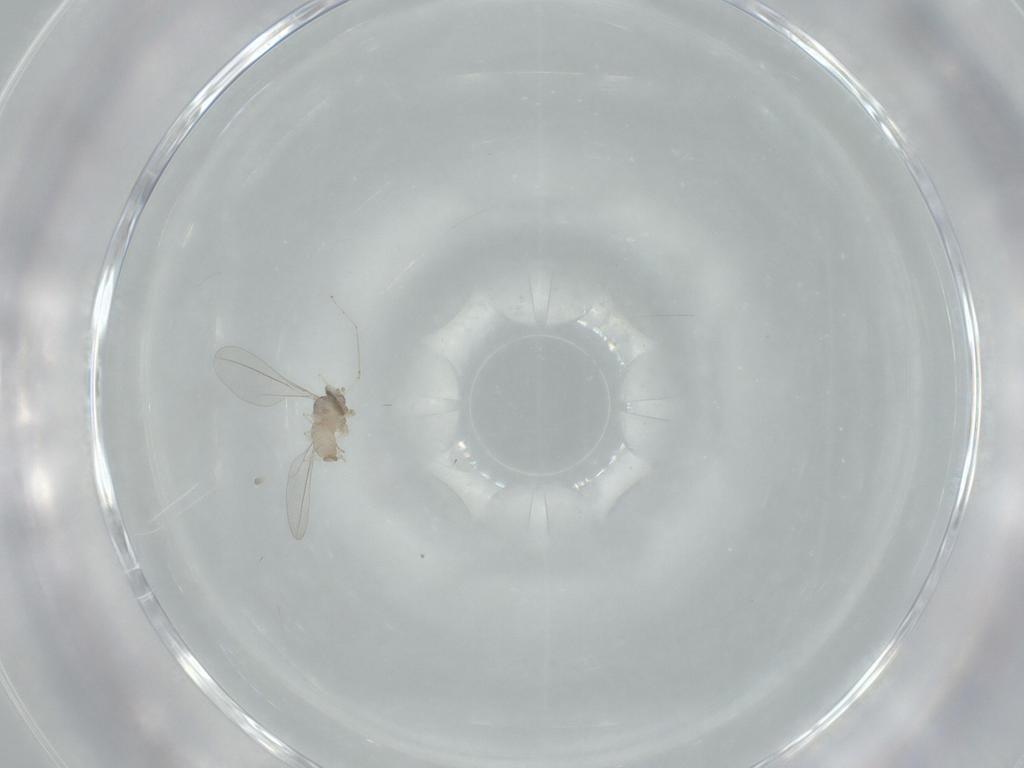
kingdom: Animalia
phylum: Arthropoda
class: Insecta
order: Diptera
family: Cecidomyiidae
